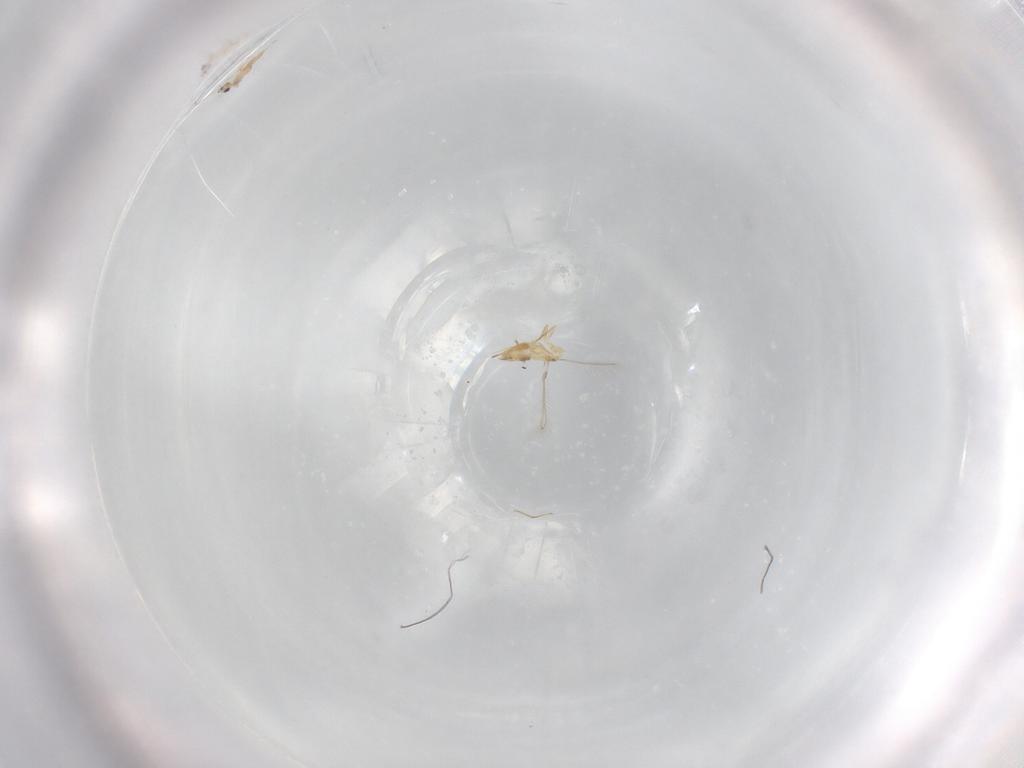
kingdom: Animalia
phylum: Arthropoda
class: Insecta
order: Hymenoptera
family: Mymaridae
